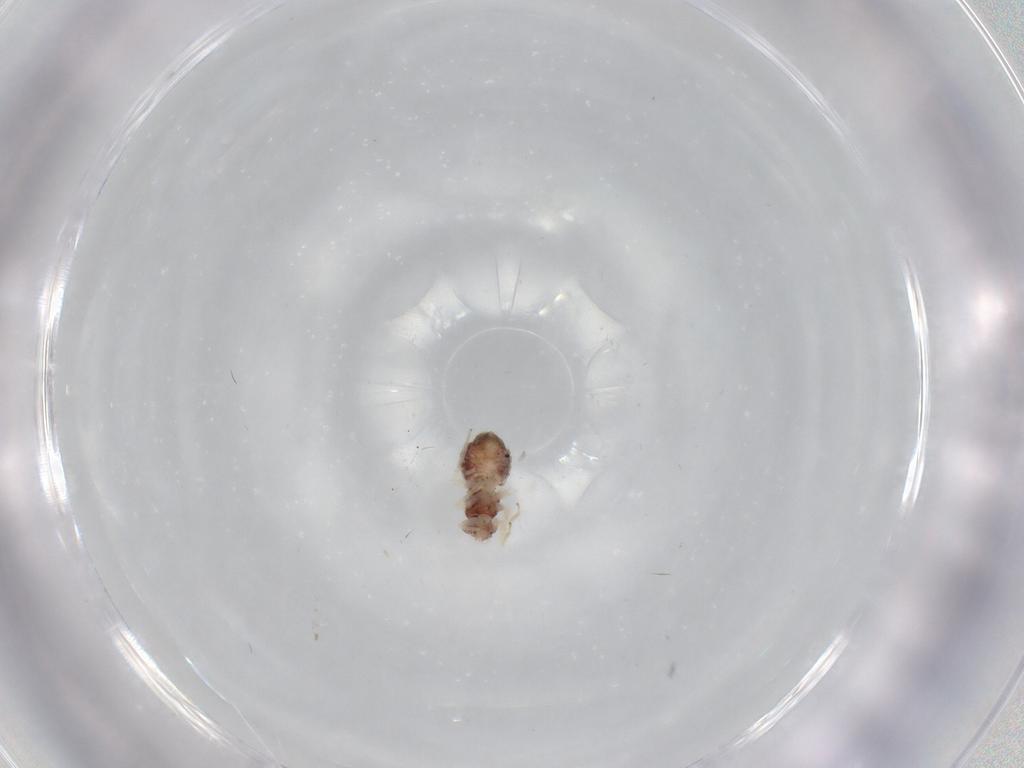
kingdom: Animalia
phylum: Arthropoda
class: Insecta
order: Psocodea
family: Archipsocidae
